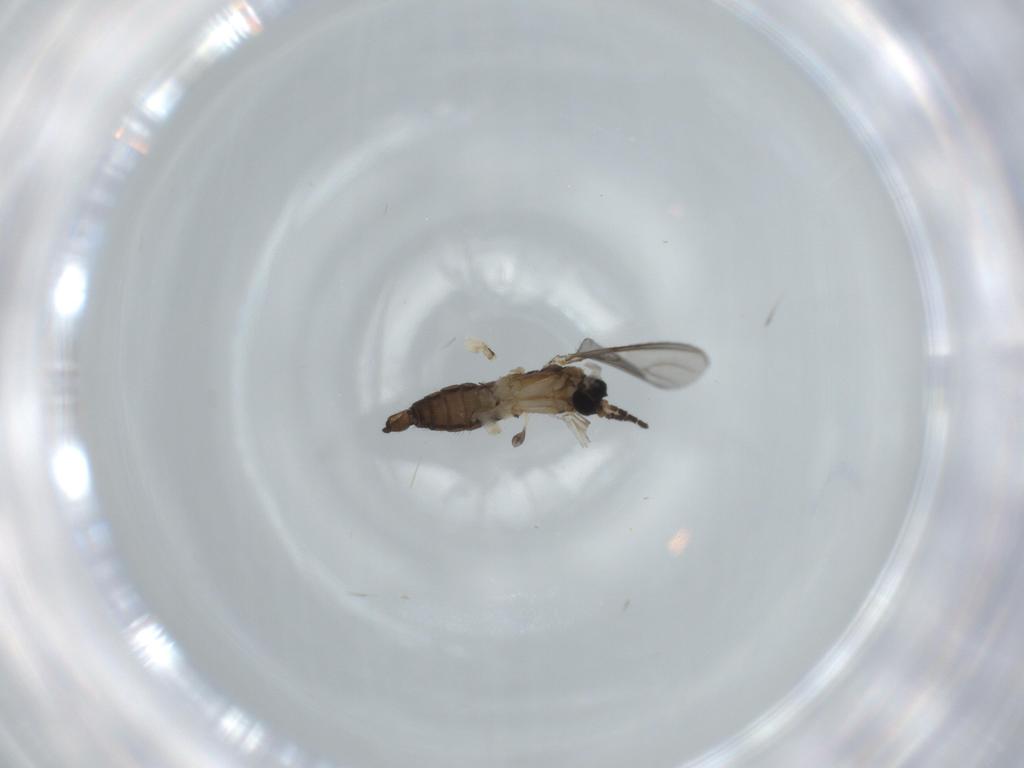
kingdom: Animalia
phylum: Arthropoda
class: Insecta
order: Diptera
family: Sciaridae
